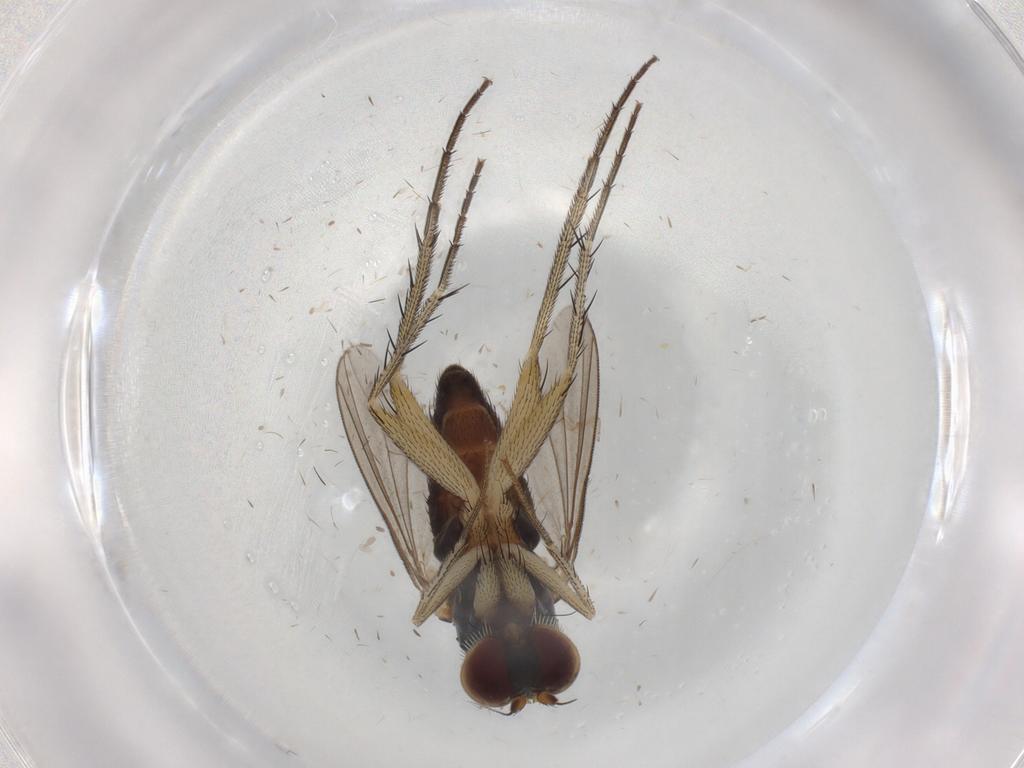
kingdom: Animalia
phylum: Arthropoda
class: Insecta
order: Diptera
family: Dolichopodidae
